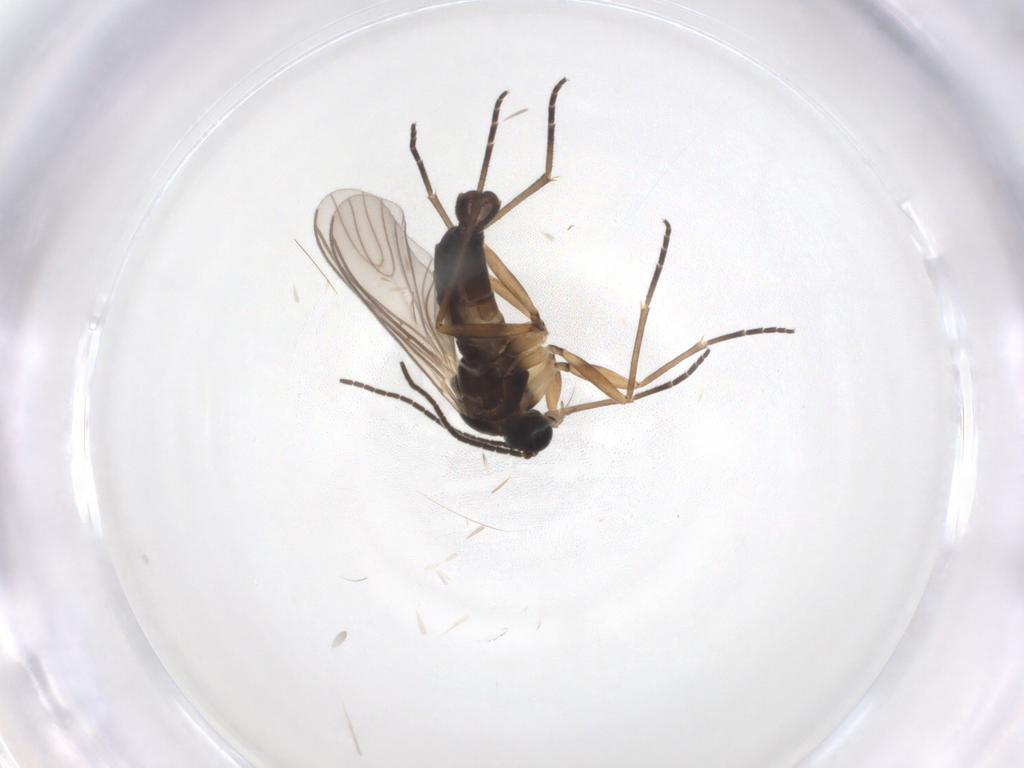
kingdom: Animalia
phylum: Arthropoda
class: Insecta
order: Diptera
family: Sciaridae
